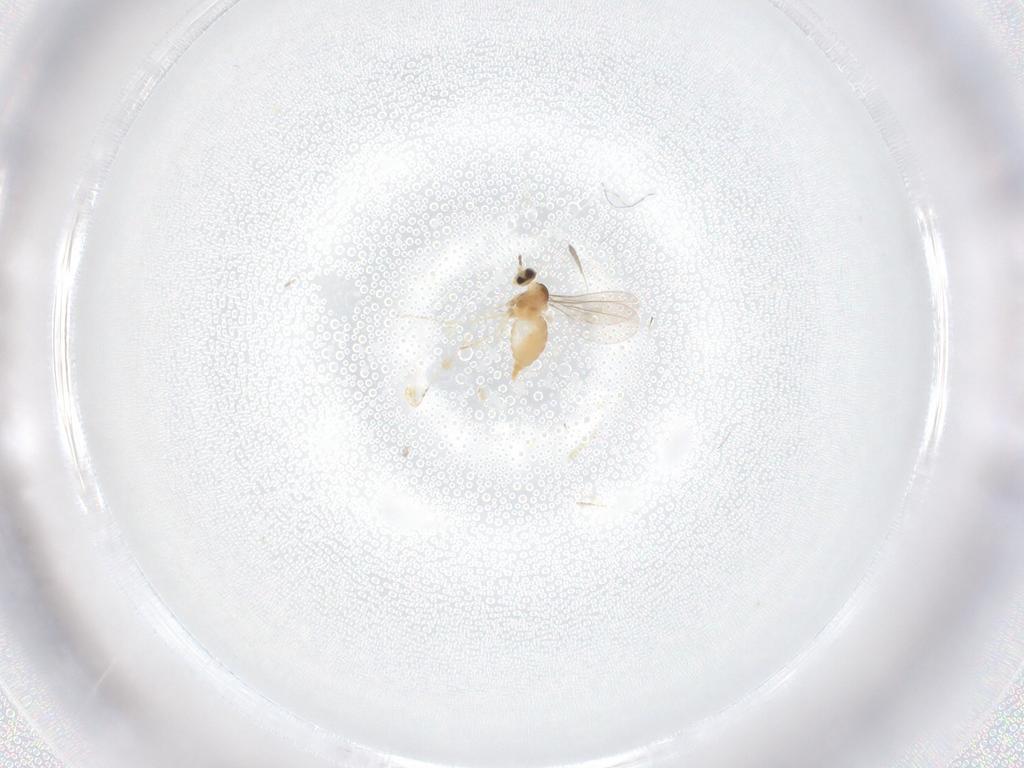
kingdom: Animalia
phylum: Arthropoda
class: Insecta
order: Diptera
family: Cecidomyiidae
